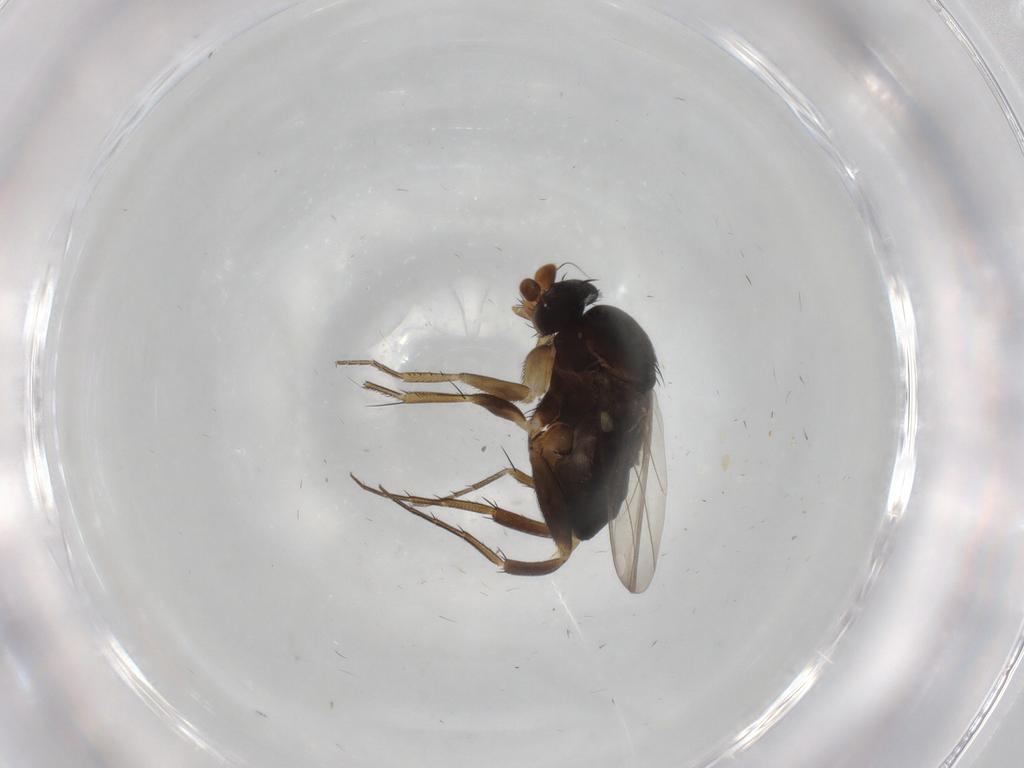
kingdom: Animalia
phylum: Arthropoda
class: Insecta
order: Diptera
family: Phoridae
